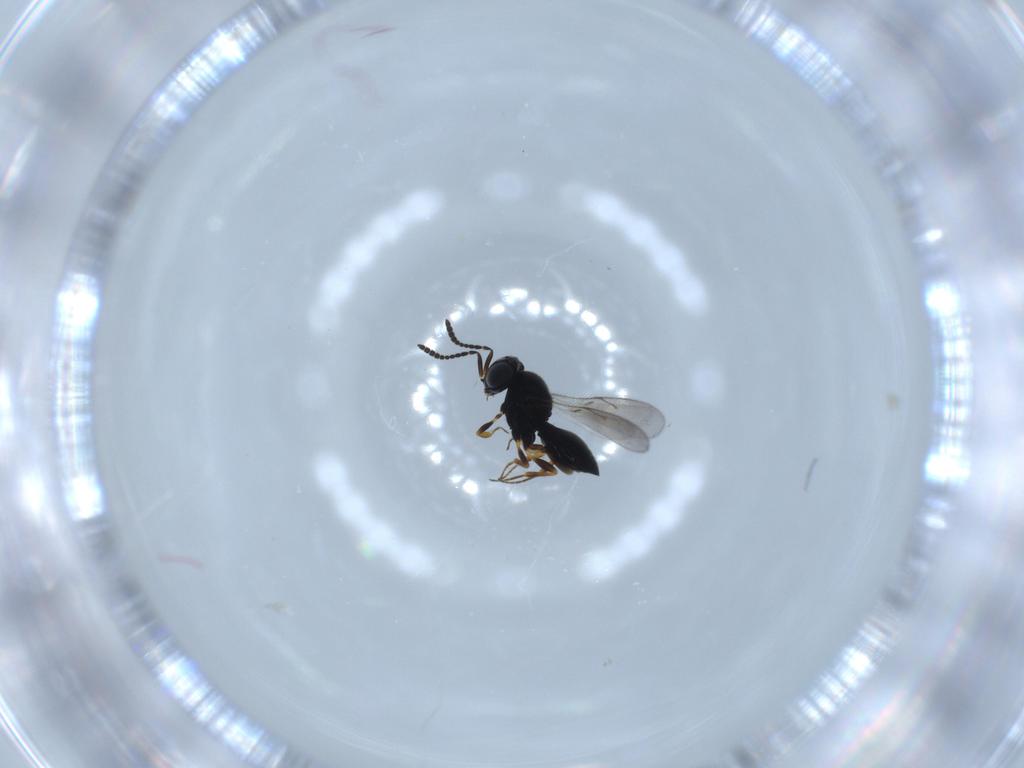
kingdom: Animalia
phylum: Arthropoda
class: Insecta
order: Hymenoptera
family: Scelionidae
